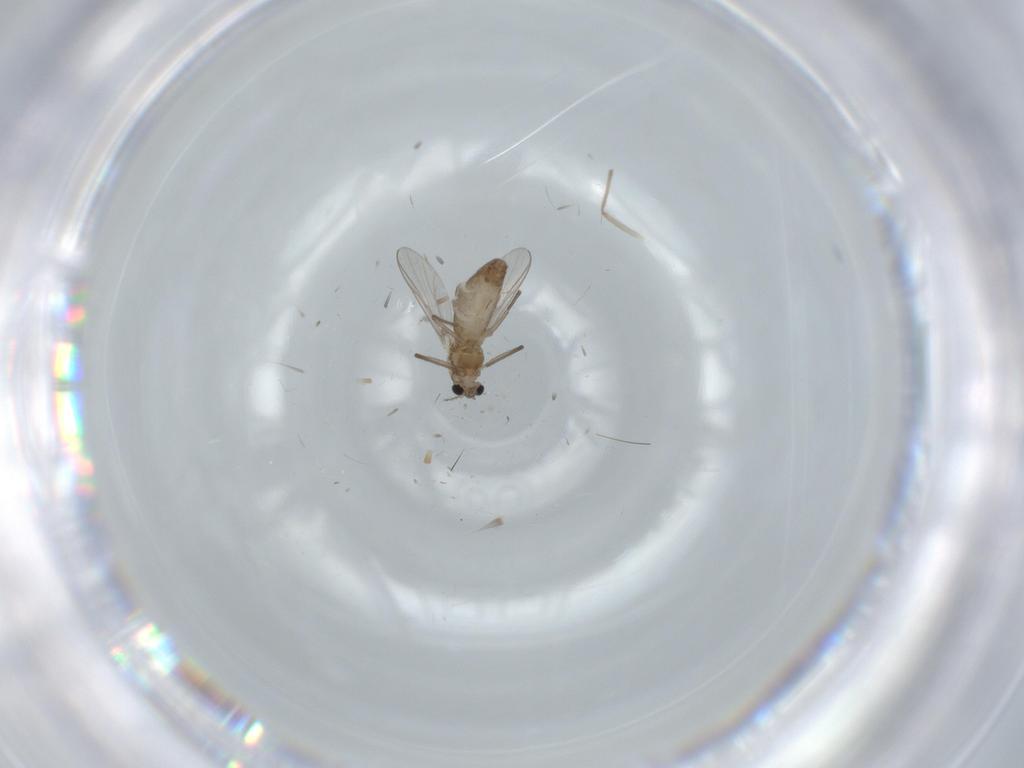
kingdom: Animalia
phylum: Arthropoda
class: Insecta
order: Diptera
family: Chironomidae
